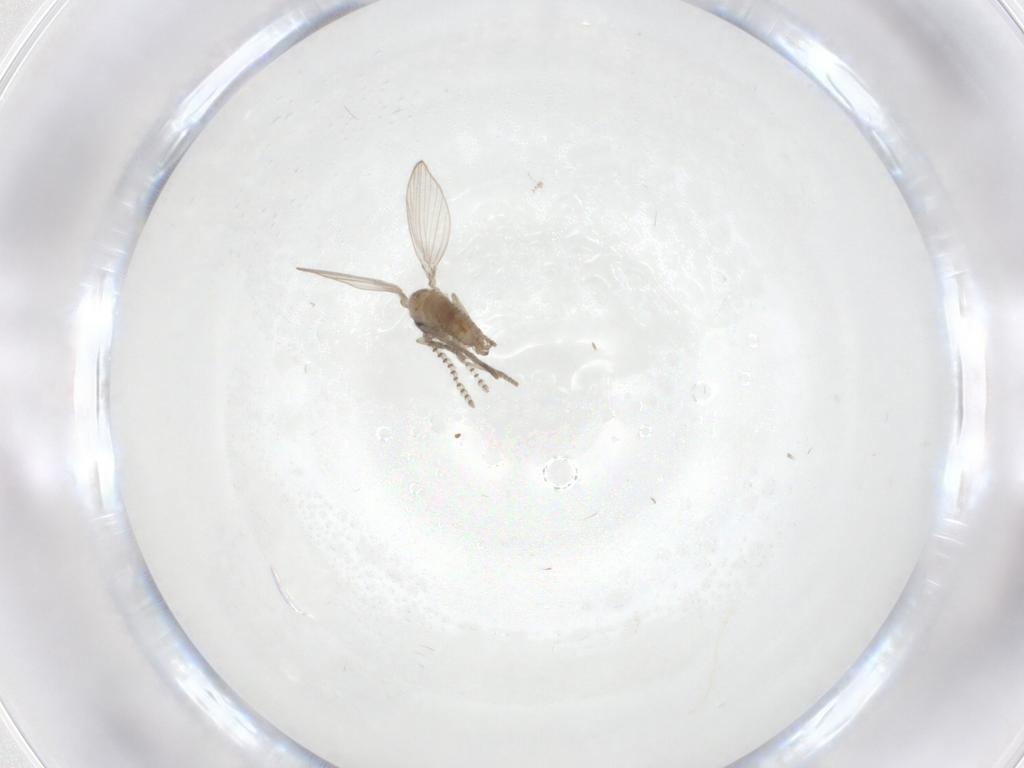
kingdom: Animalia
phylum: Arthropoda
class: Insecta
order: Diptera
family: Psychodidae
